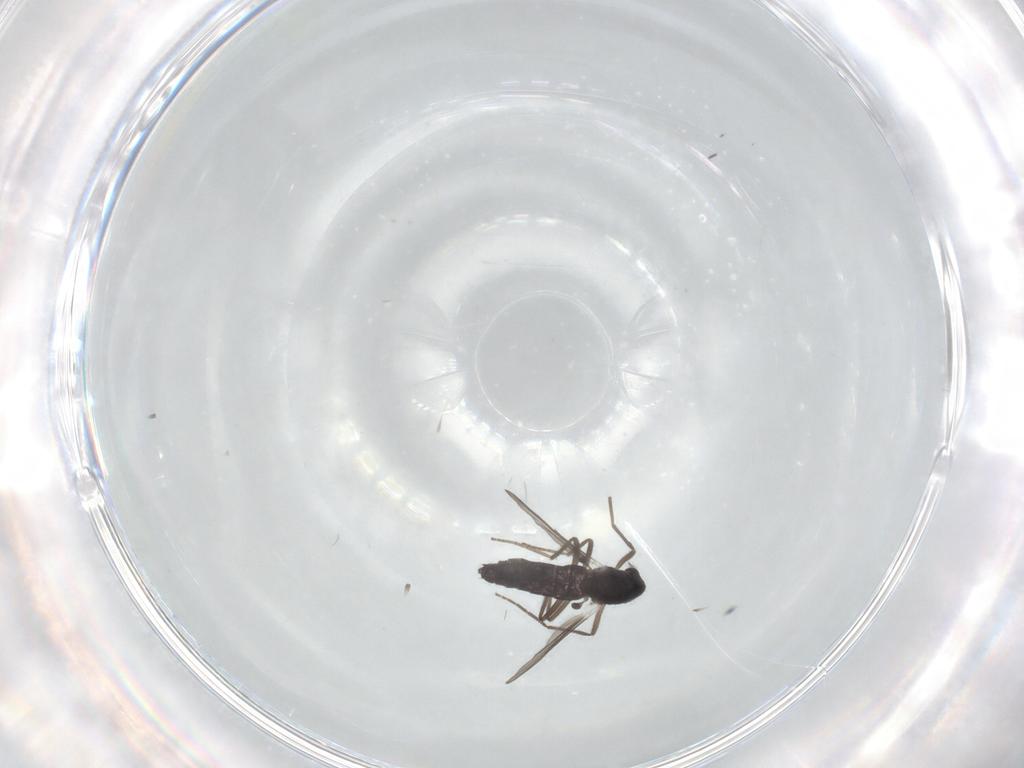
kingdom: Animalia
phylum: Arthropoda
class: Insecta
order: Diptera
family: Chironomidae
